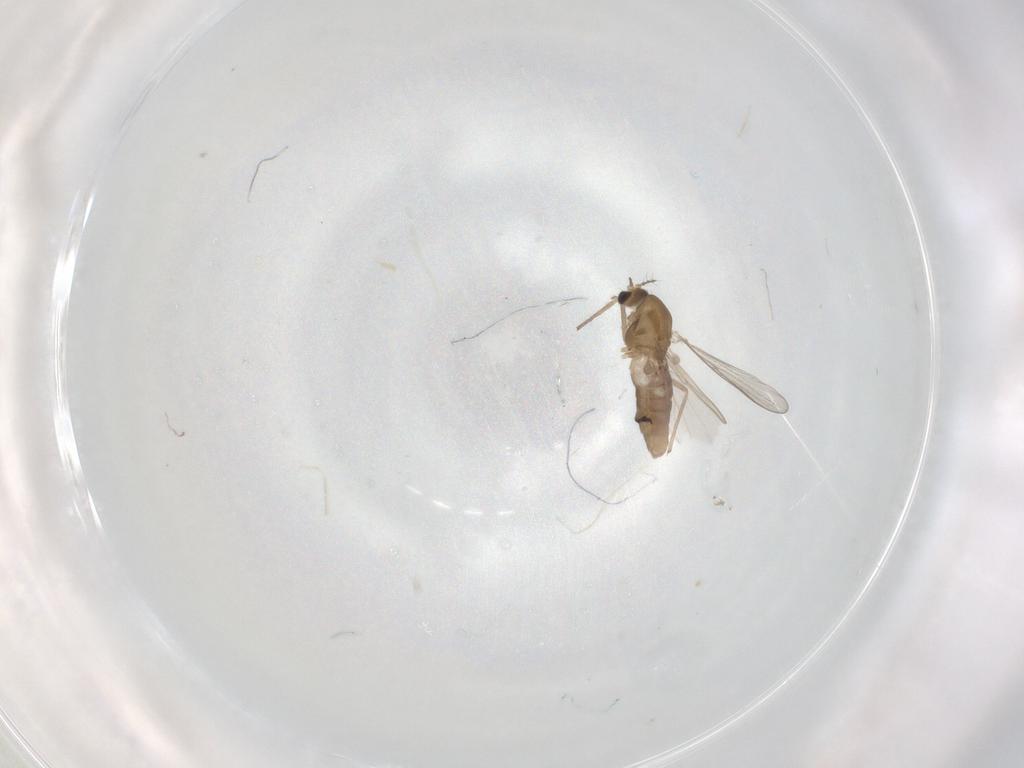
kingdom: Animalia
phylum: Arthropoda
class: Insecta
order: Diptera
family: Chironomidae
